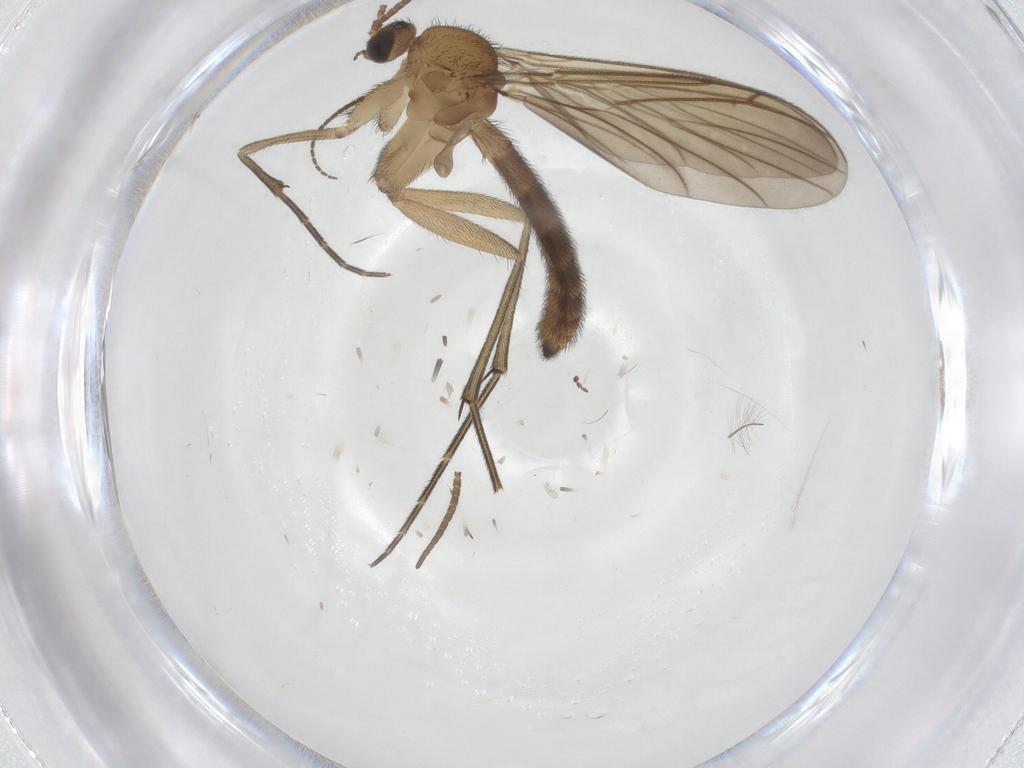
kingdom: Animalia
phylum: Arthropoda
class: Insecta
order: Diptera
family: Keroplatidae
